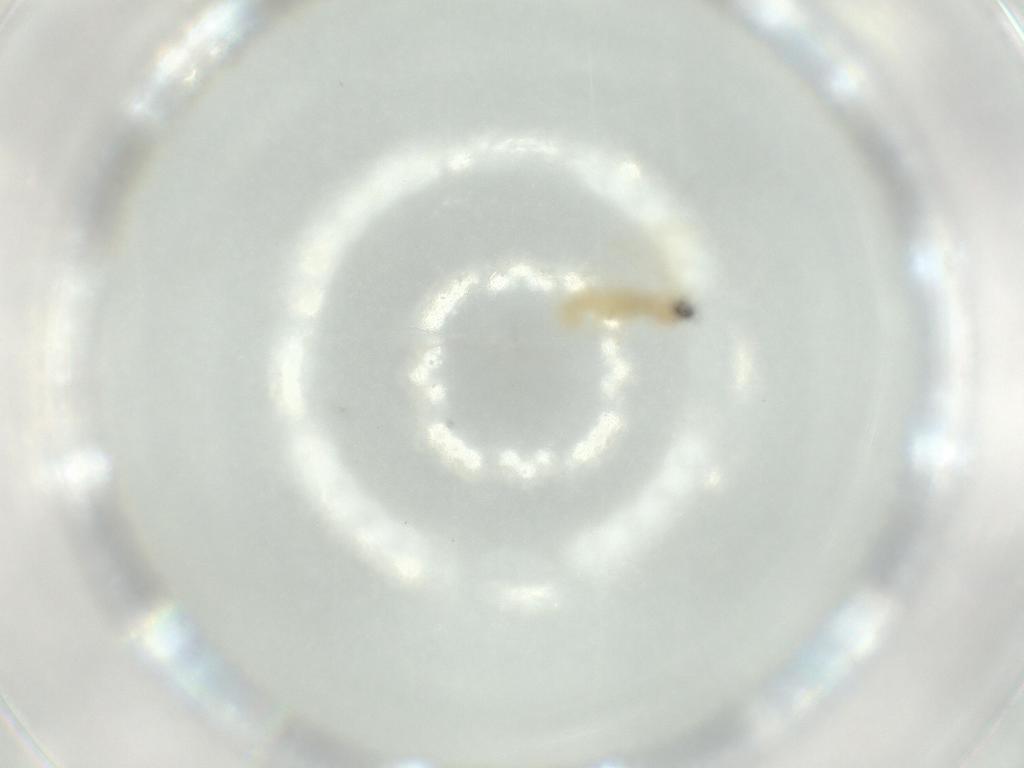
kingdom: Animalia
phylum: Arthropoda
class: Insecta
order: Diptera
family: Cecidomyiidae
